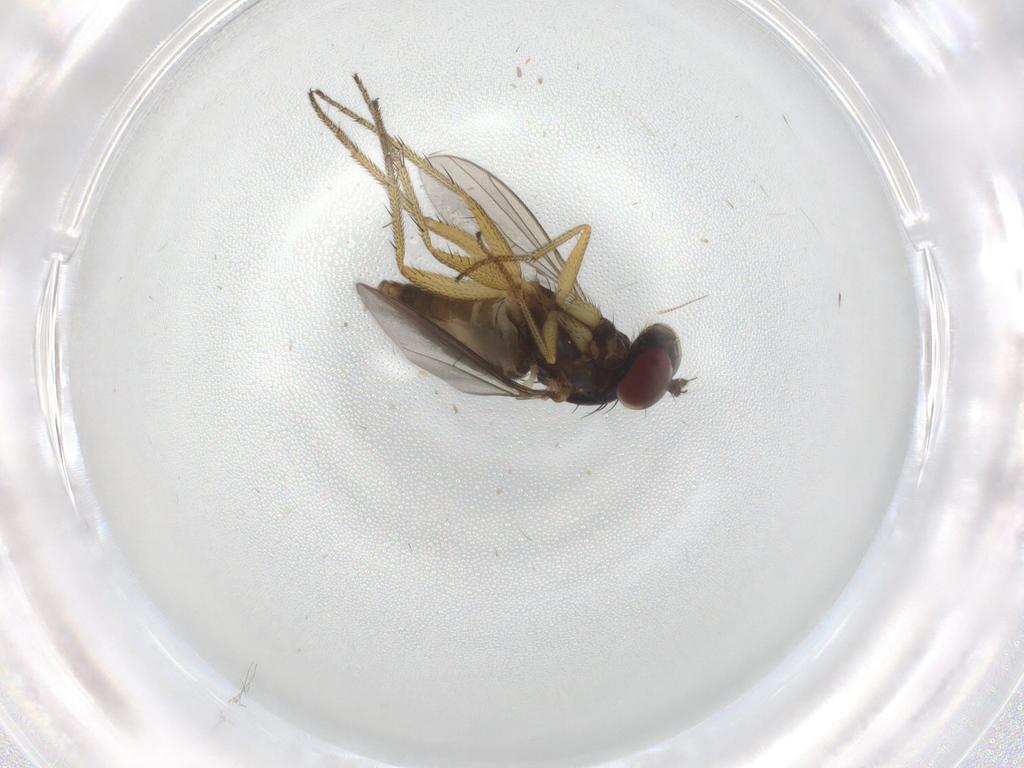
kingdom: Animalia
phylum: Arthropoda
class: Insecta
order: Diptera
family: Dolichopodidae
